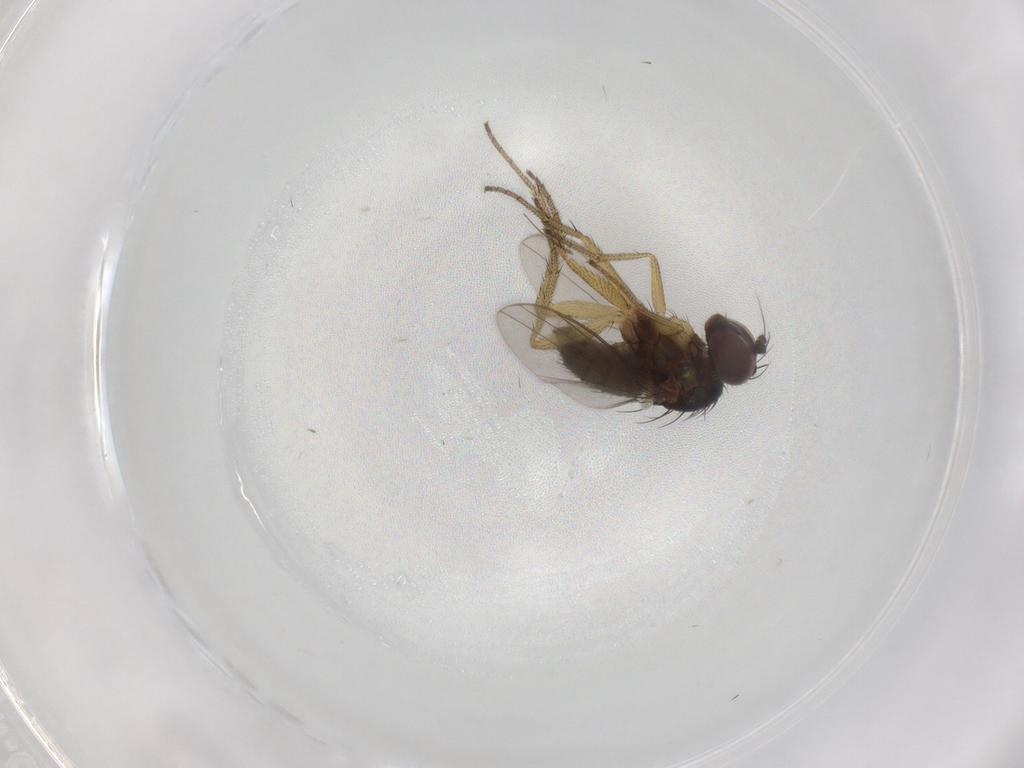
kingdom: Animalia
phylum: Arthropoda
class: Insecta
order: Diptera
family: Chironomidae
